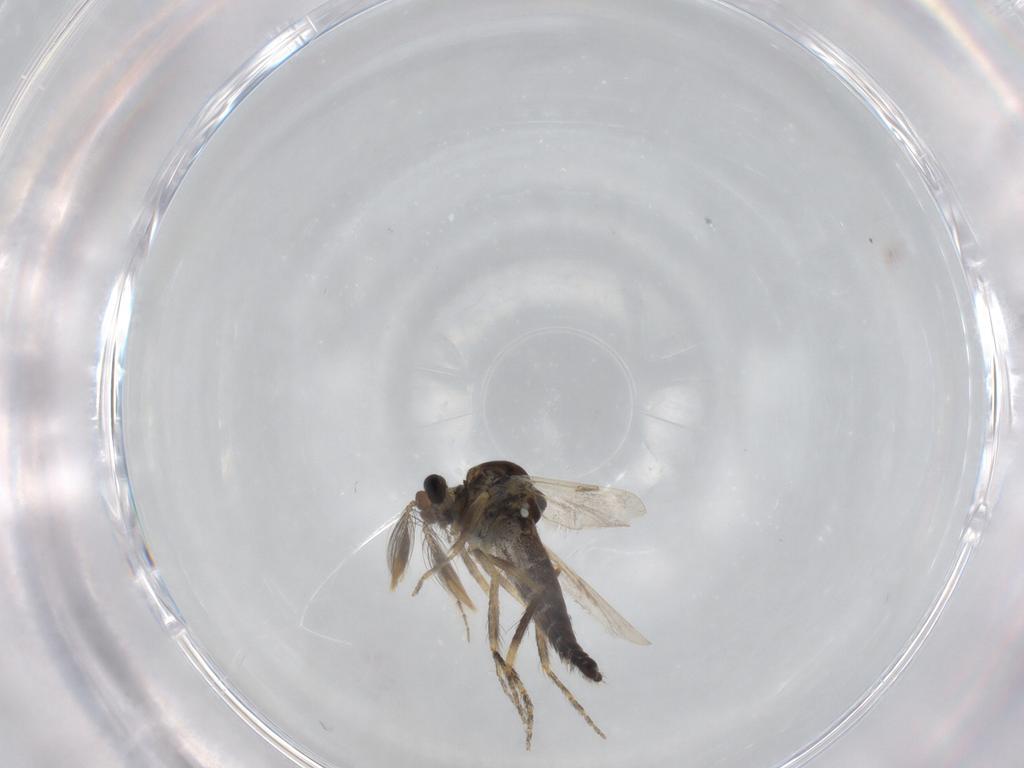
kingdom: Animalia
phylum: Arthropoda
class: Insecta
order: Diptera
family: Ceratopogonidae
